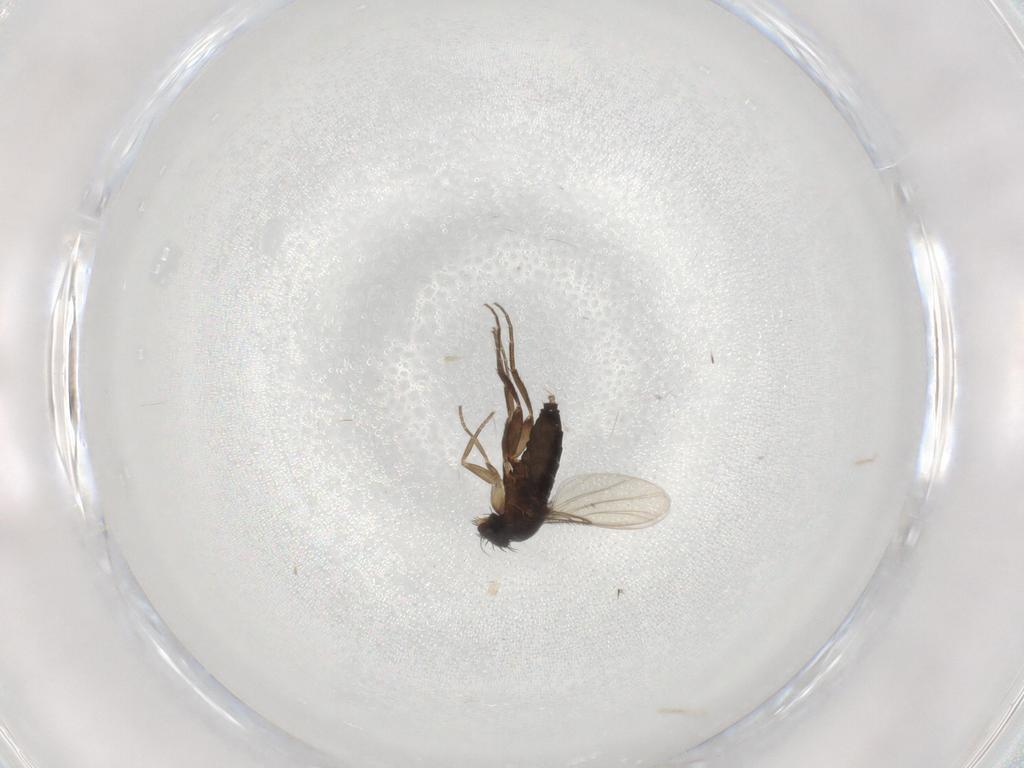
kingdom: Animalia
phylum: Arthropoda
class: Insecta
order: Diptera
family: Phoridae
